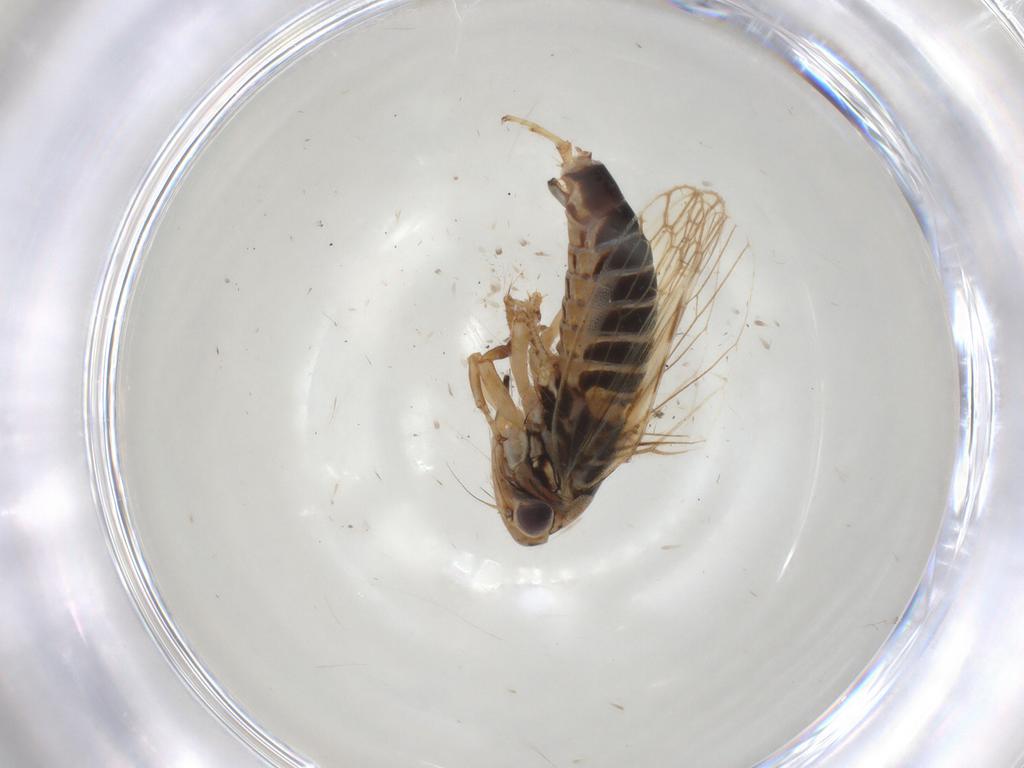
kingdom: Animalia
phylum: Arthropoda
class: Insecta
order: Hemiptera
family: Cicadellidae
